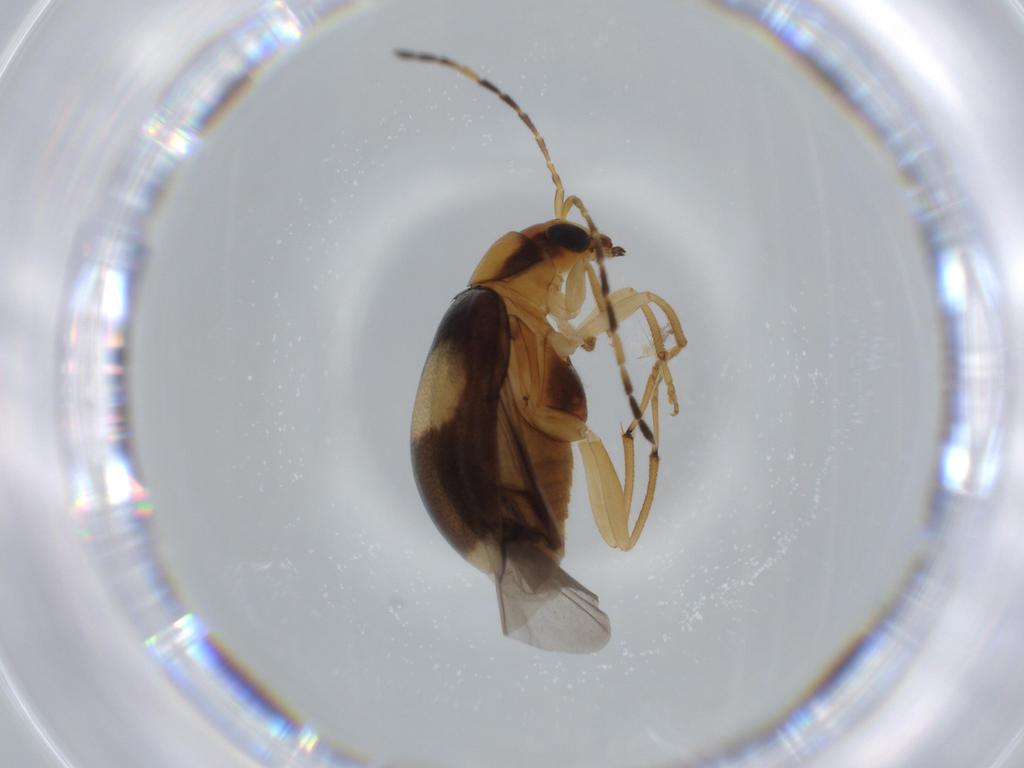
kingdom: Animalia
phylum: Arthropoda
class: Insecta
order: Coleoptera
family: Chrysomelidae
